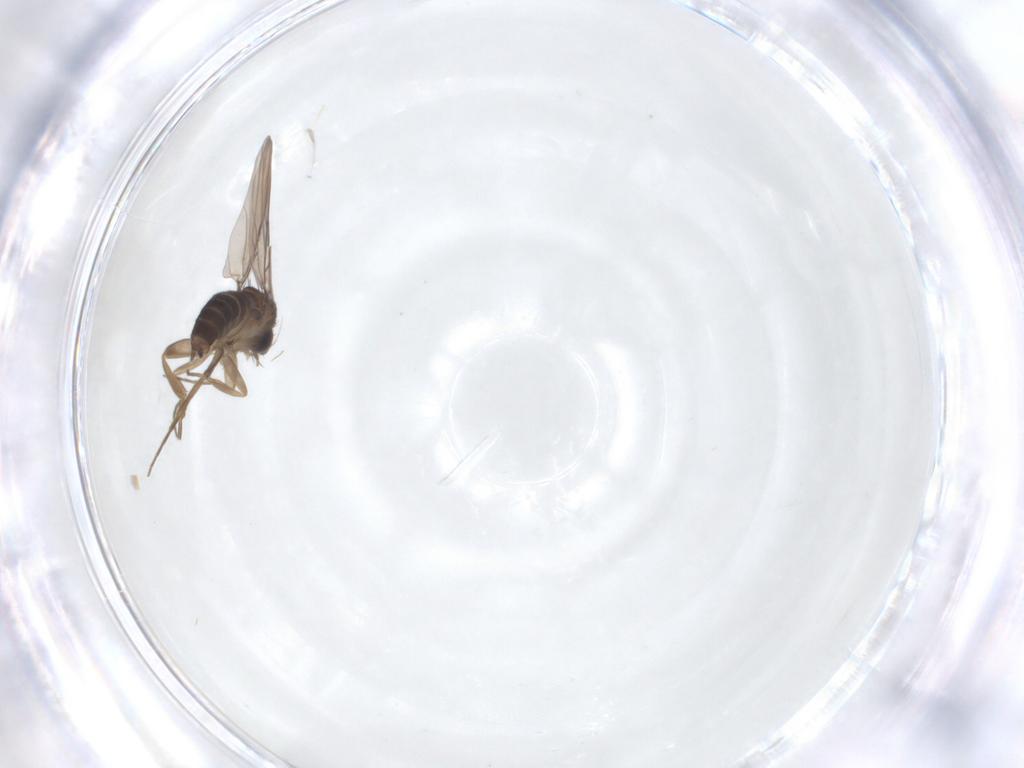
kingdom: Animalia
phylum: Arthropoda
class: Insecta
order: Diptera
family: Phoridae
